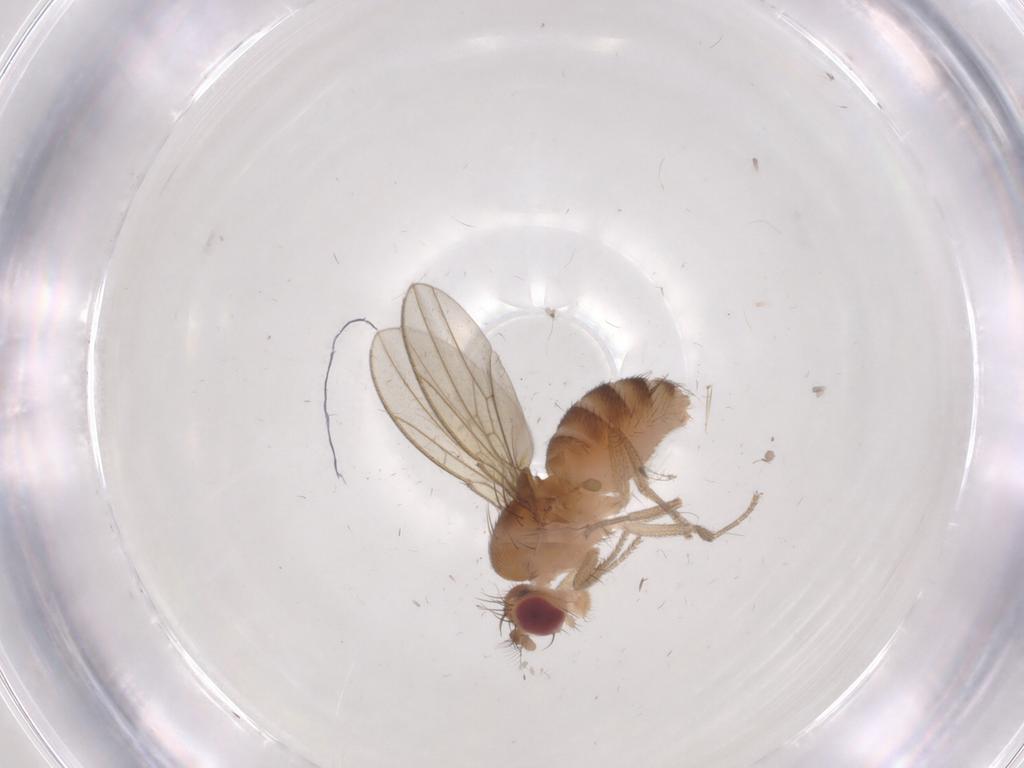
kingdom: Animalia
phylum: Arthropoda
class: Insecta
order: Diptera
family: Drosophilidae
